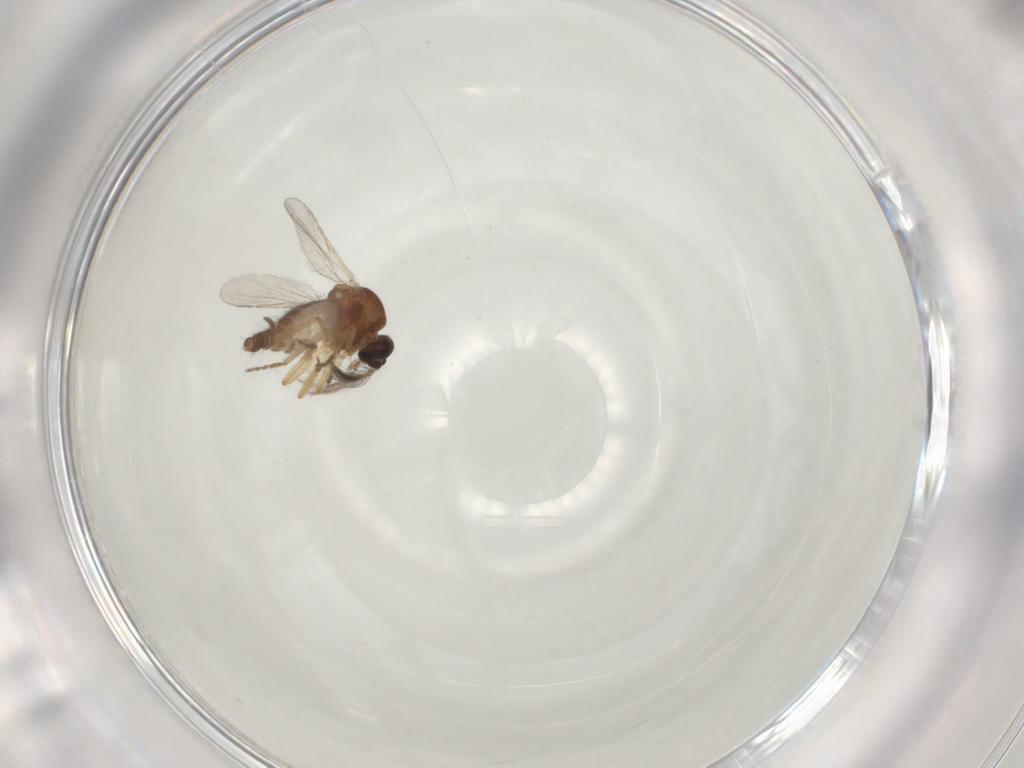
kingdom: Animalia
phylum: Arthropoda
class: Insecta
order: Diptera
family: Ceratopogonidae
